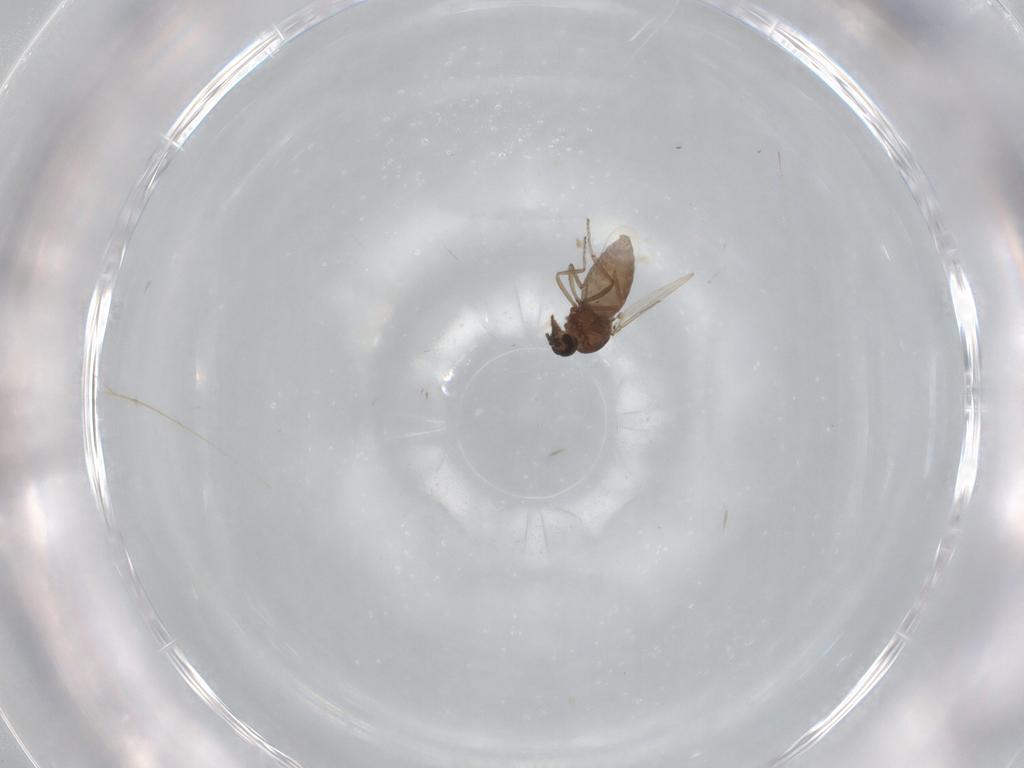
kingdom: Animalia
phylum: Arthropoda
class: Insecta
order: Diptera
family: Ceratopogonidae
